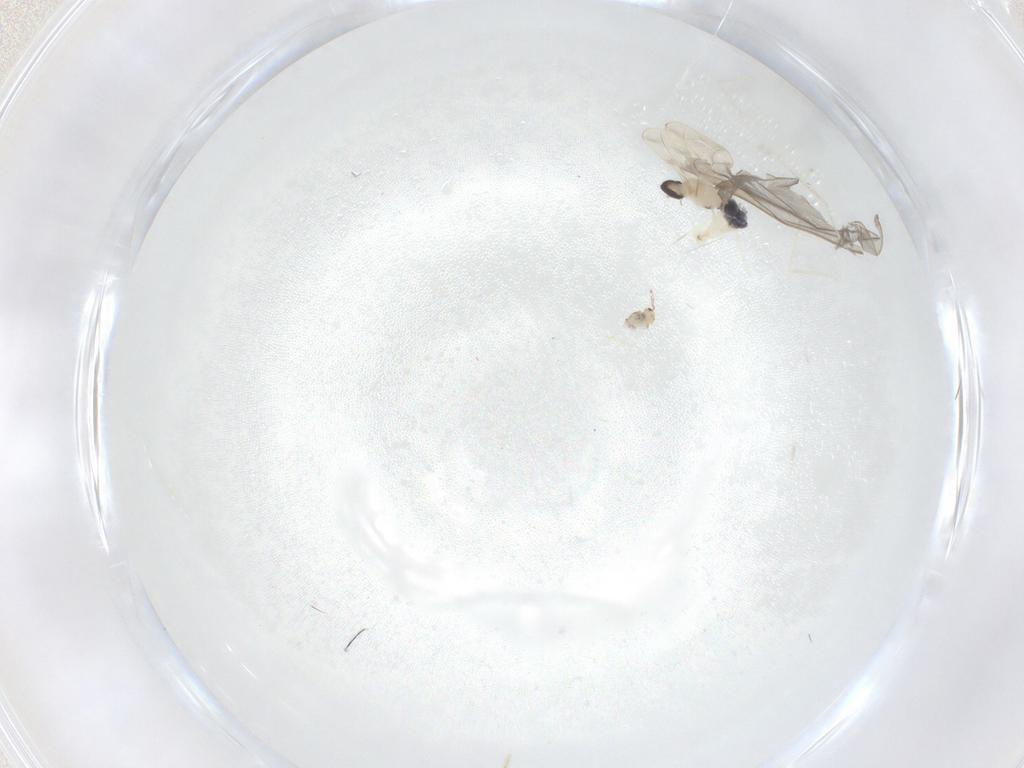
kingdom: Animalia
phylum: Arthropoda
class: Insecta
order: Diptera
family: Cecidomyiidae
